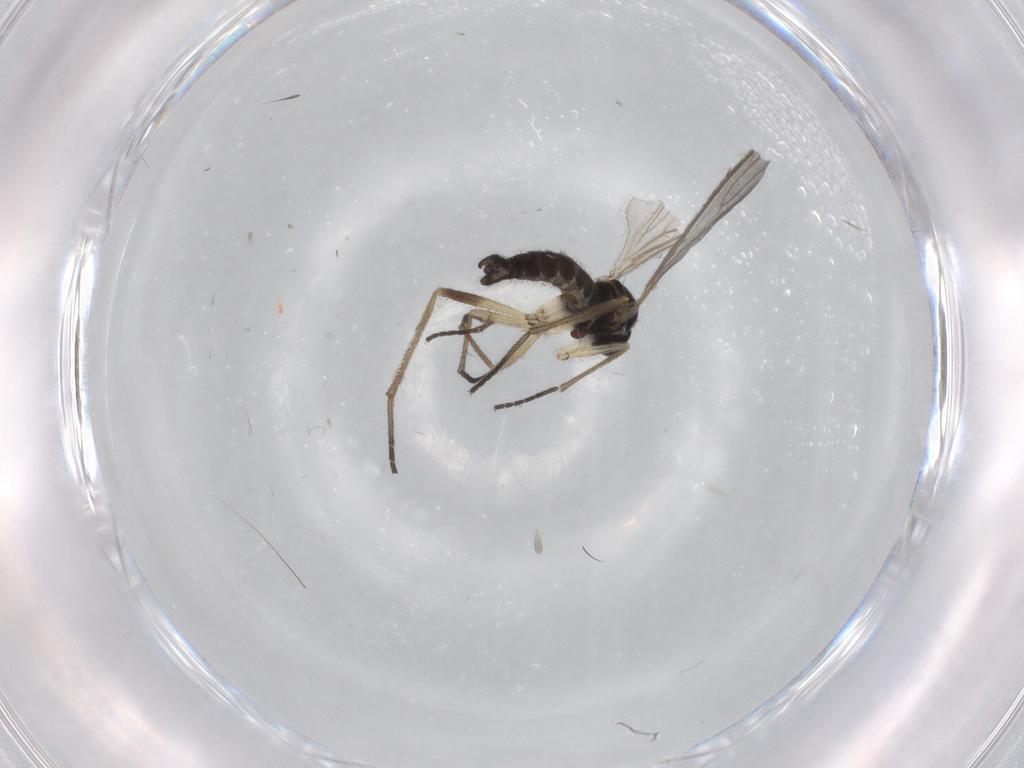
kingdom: Animalia
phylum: Arthropoda
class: Insecta
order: Diptera
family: Sciaridae
